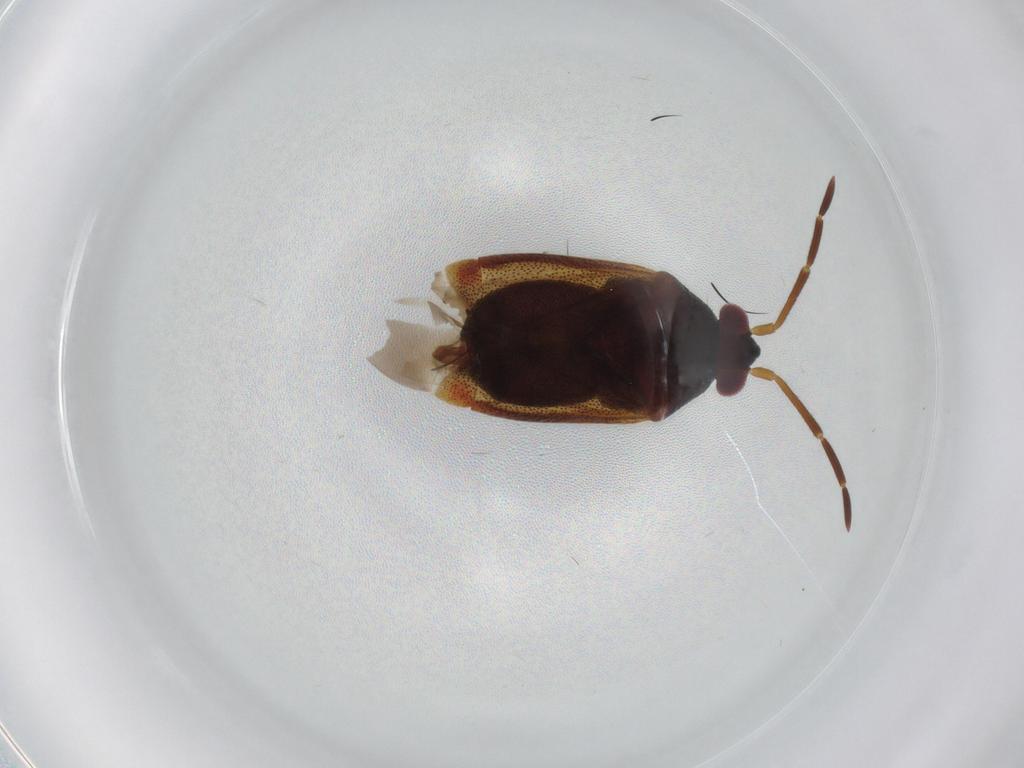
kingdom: Animalia
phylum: Arthropoda
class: Insecta
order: Hemiptera
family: Miridae
